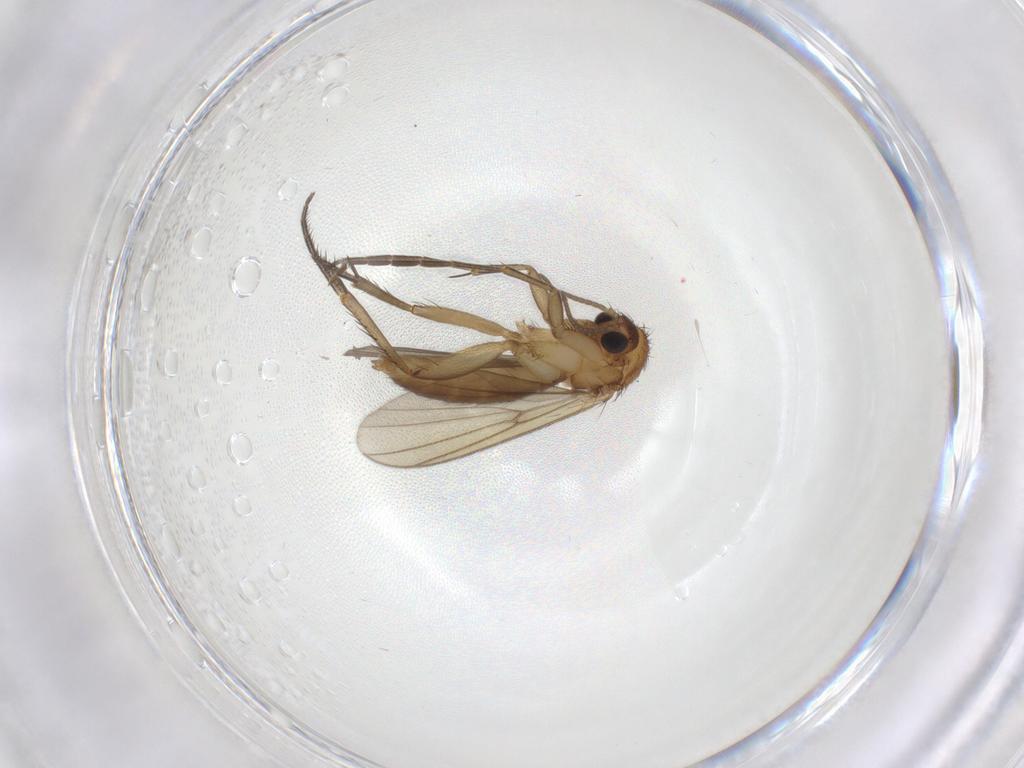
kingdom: Animalia
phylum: Arthropoda
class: Insecta
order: Diptera
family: Mycetophilidae
